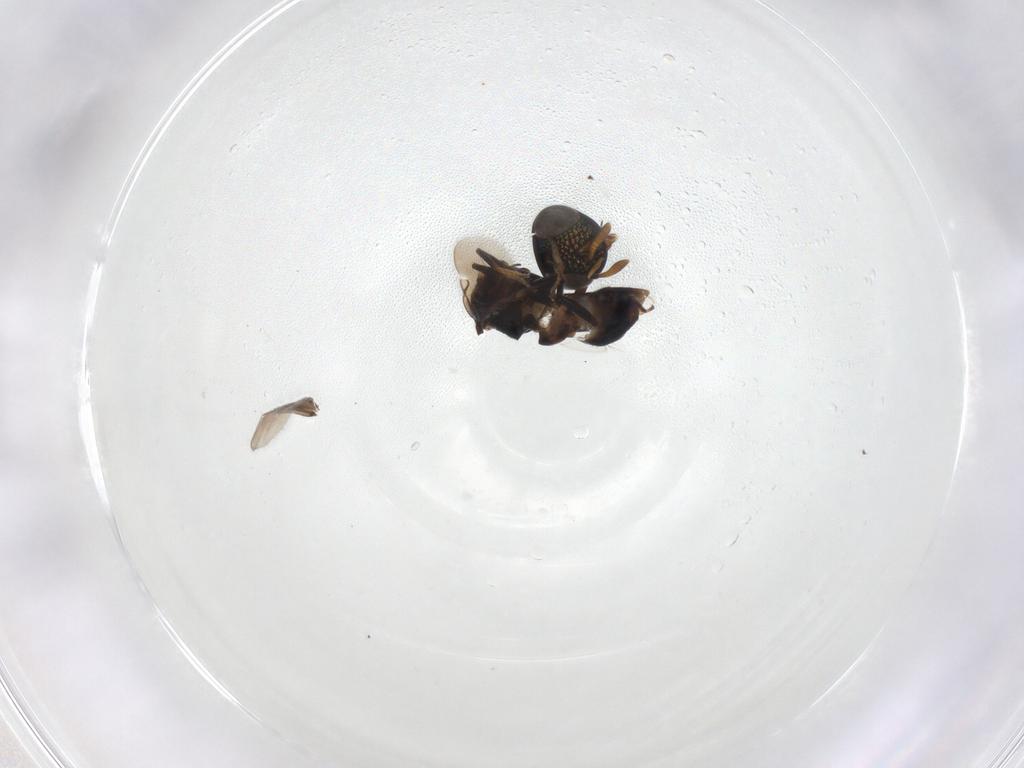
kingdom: Animalia
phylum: Arthropoda
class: Insecta
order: Hymenoptera
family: Encyrtidae
